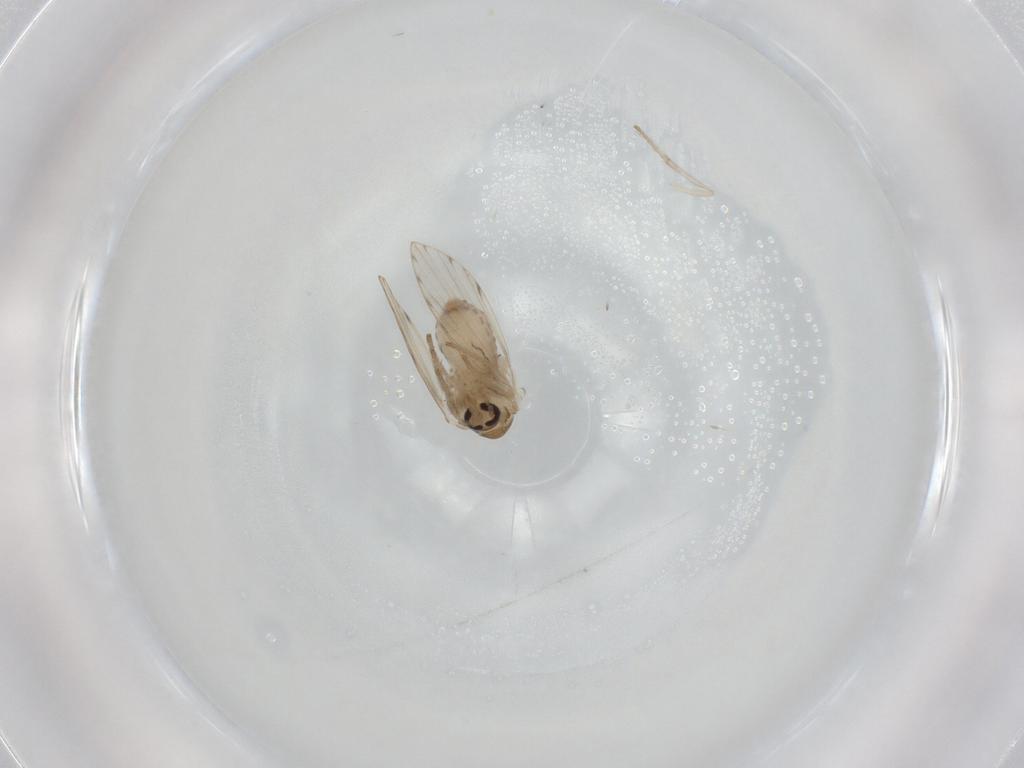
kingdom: Animalia
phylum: Arthropoda
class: Insecta
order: Diptera
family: Psychodidae
